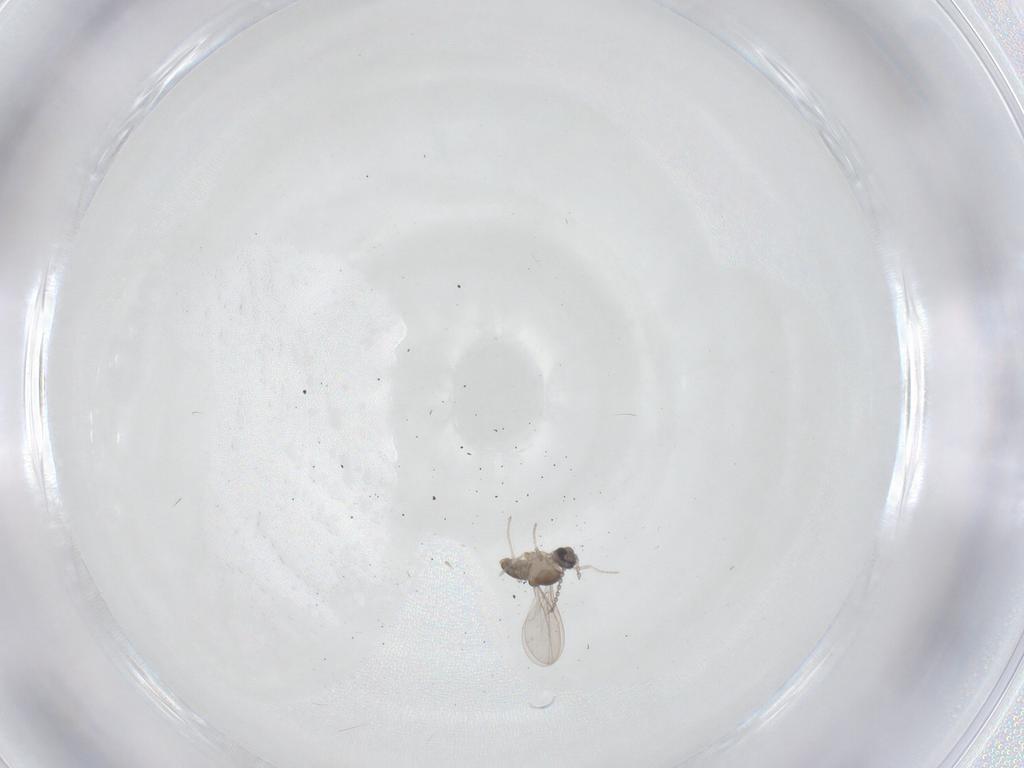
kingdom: Animalia
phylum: Arthropoda
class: Insecta
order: Diptera
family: Cecidomyiidae
